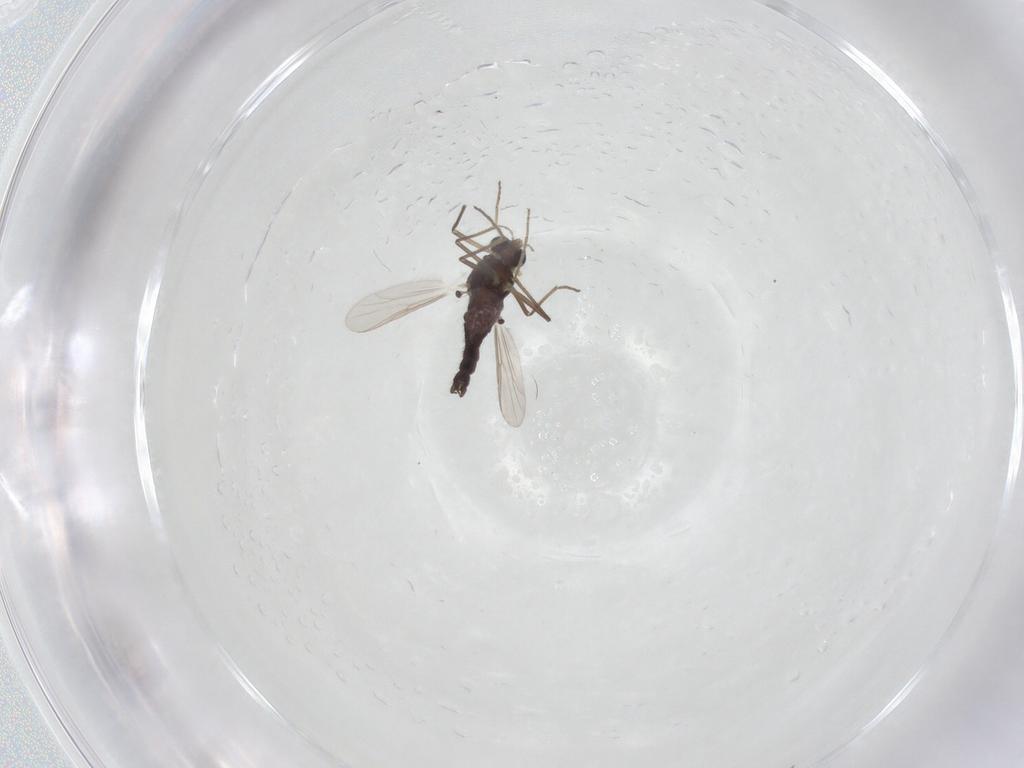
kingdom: Animalia
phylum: Arthropoda
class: Insecta
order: Diptera
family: Chironomidae
